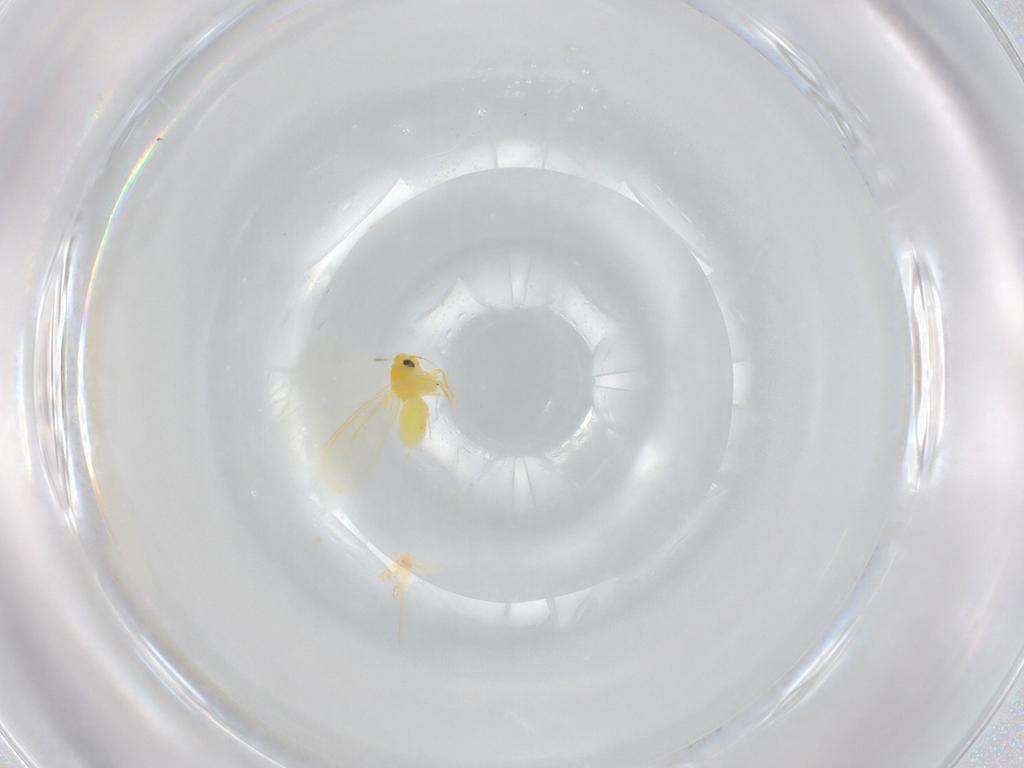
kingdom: Animalia
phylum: Arthropoda
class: Insecta
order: Hemiptera
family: Aleyrodidae
